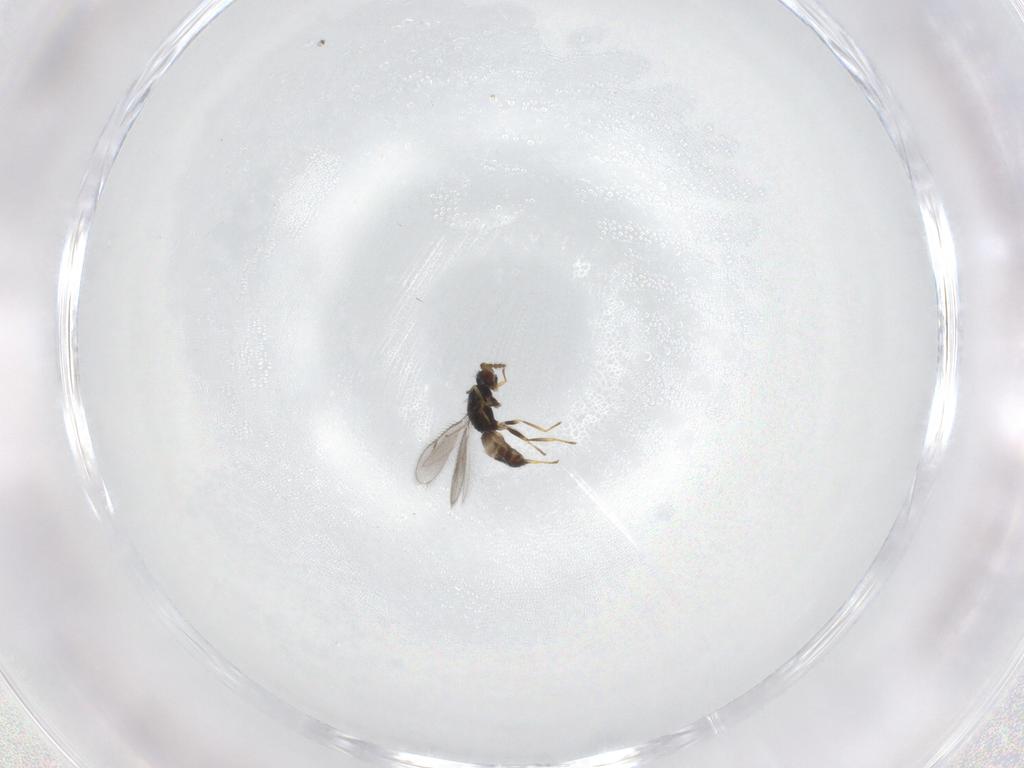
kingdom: Animalia
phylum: Arthropoda
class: Insecta
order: Hymenoptera
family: Eulophidae
